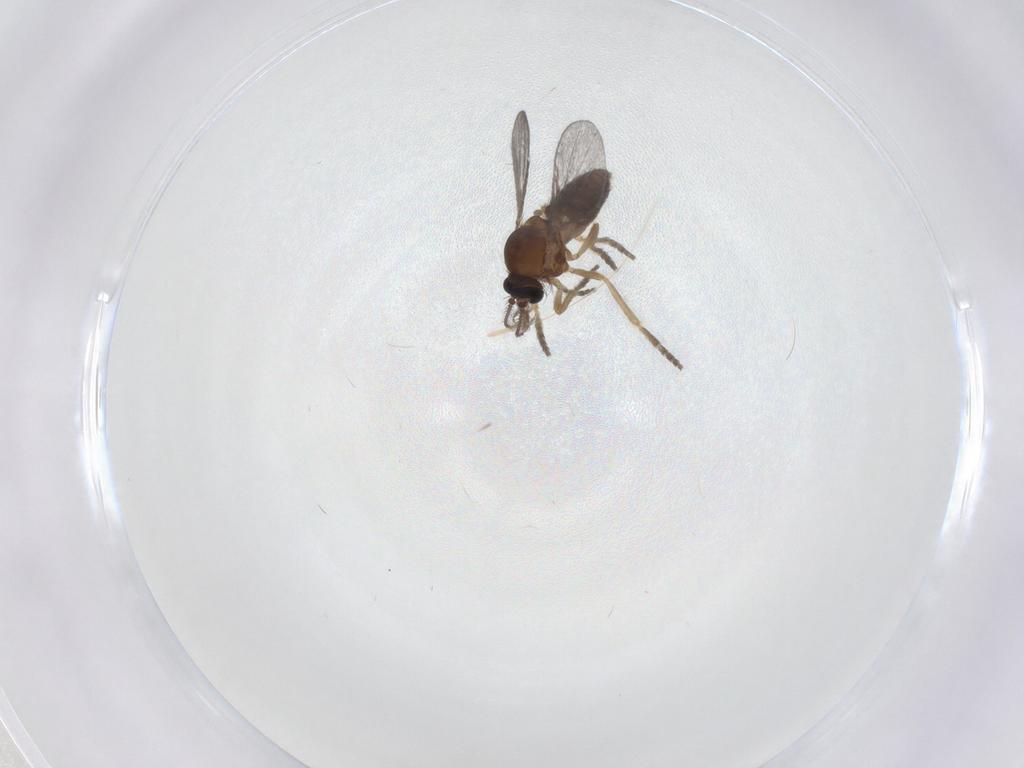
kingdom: Animalia
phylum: Arthropoda
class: Insecta
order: Diptera
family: Ceratopogonidae
